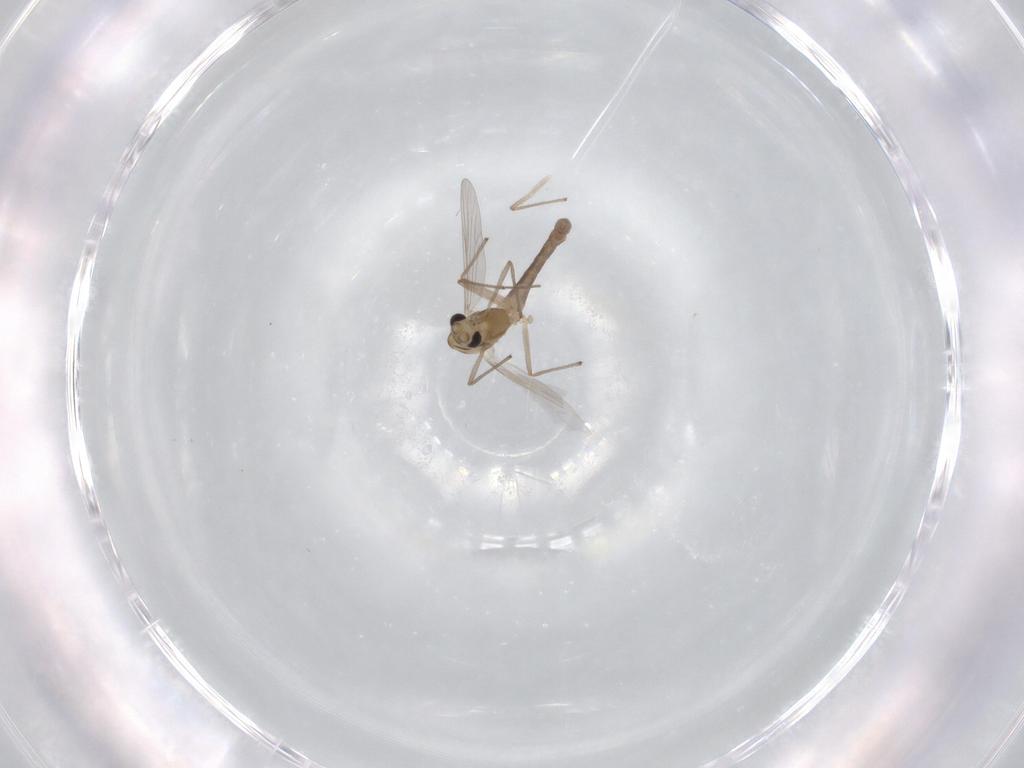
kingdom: Animalia
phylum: Arthropoda
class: Insecta
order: Diptera
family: Chironomidae
